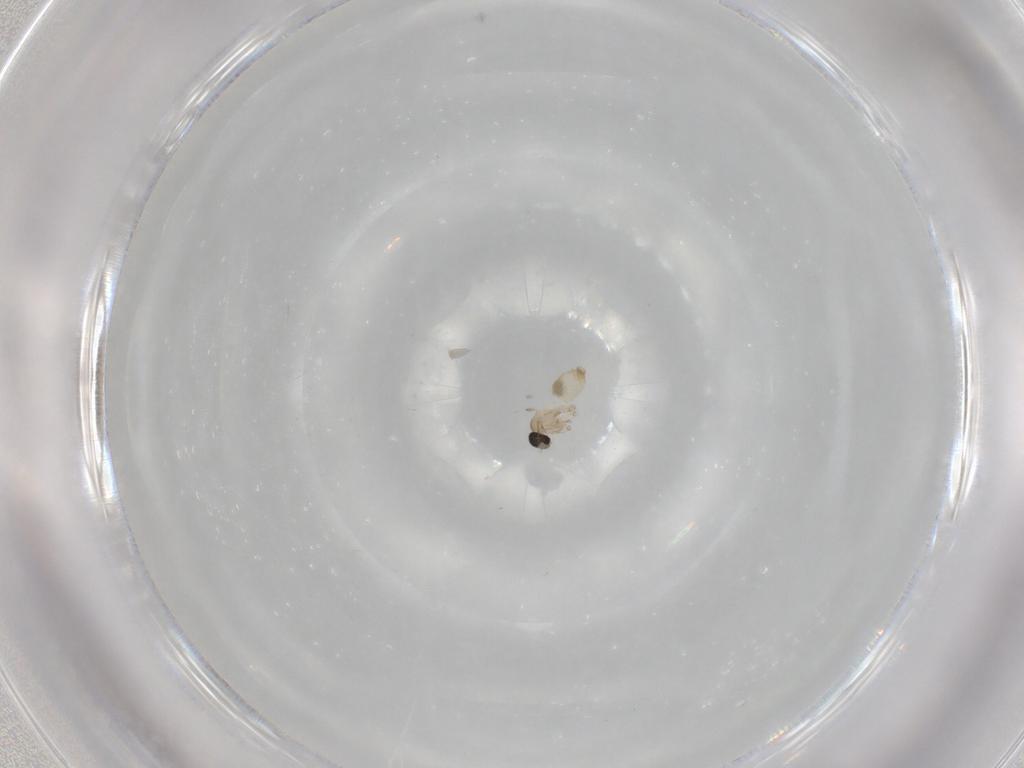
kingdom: Animalia
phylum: Arthropoda
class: Insecta
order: Diptera
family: Cecidomyiidae
